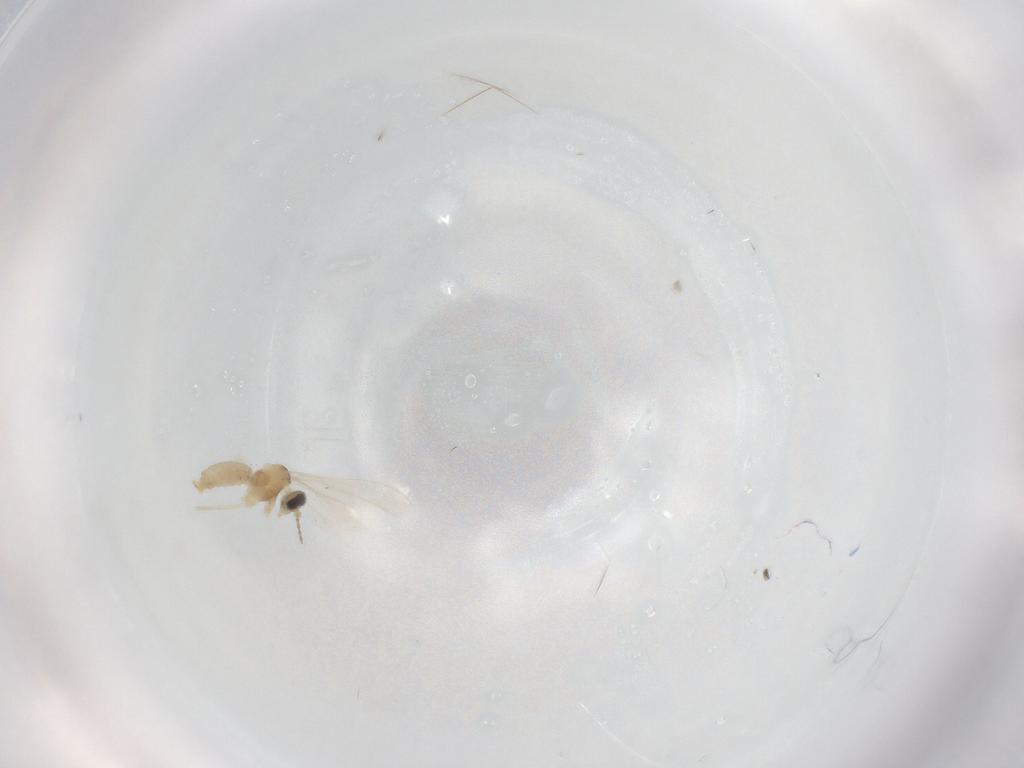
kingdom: Animalia
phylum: Arthropoda
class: Insecta
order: Diptera
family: Cecidomyiidae
